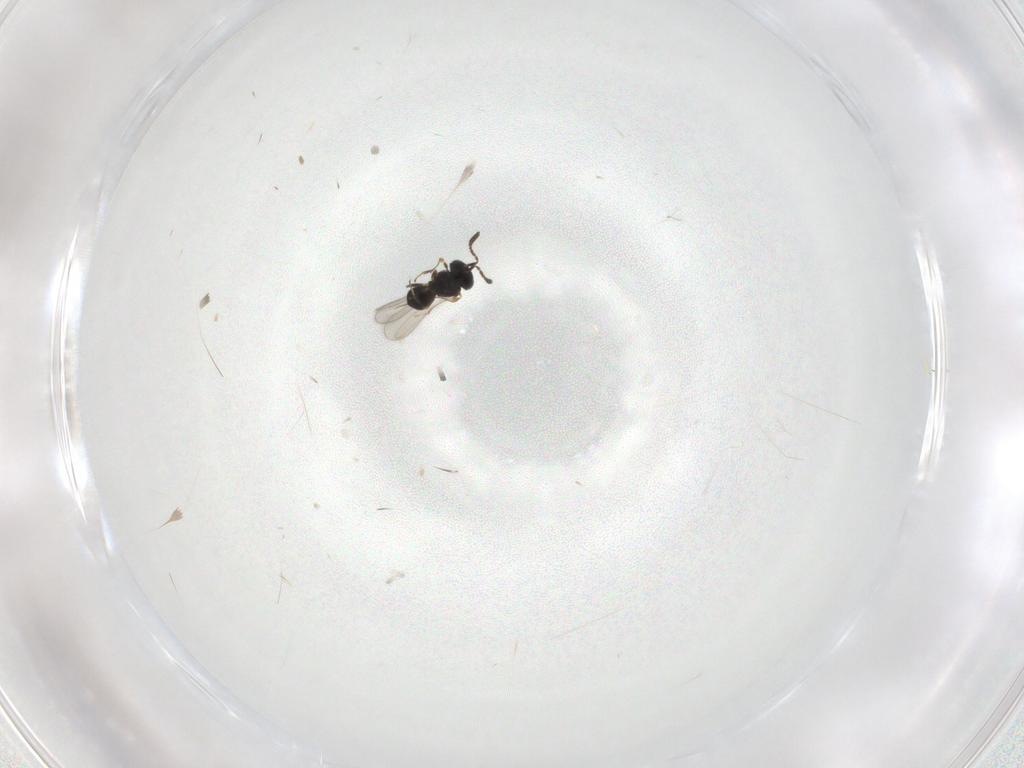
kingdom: Animalia
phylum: Arthropoda
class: Insecta
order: Hymenoptera
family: Scelionidae
